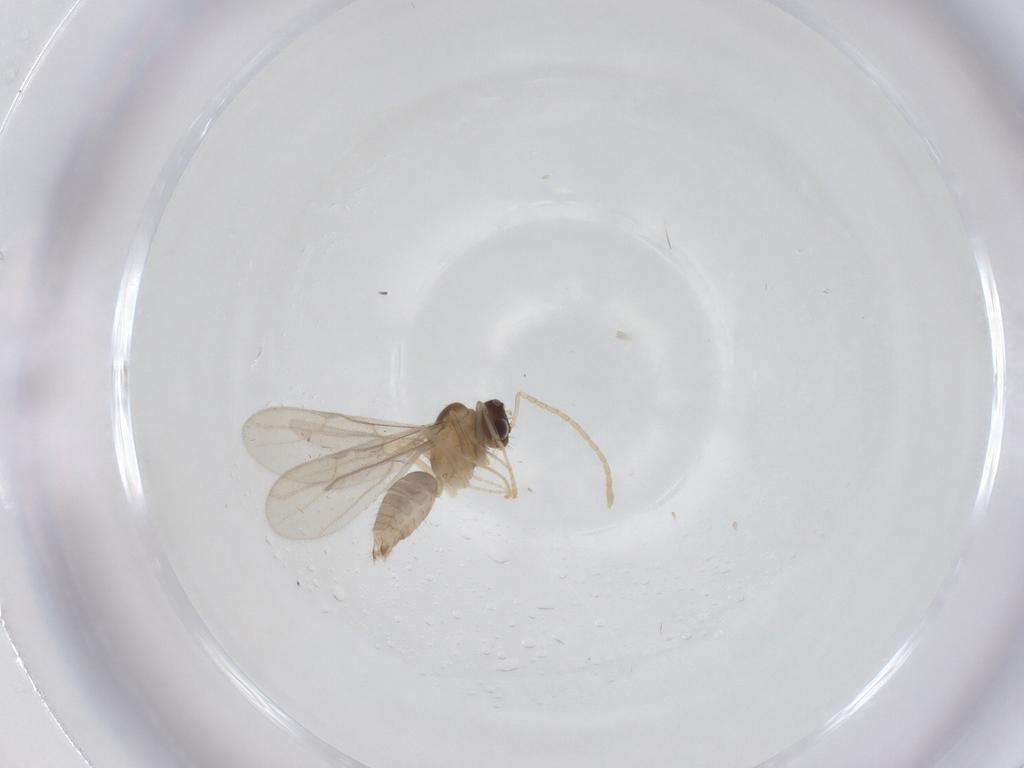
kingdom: Animalia
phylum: Arthropoda
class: Insecta
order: Hymenoptera
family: Formicidae
